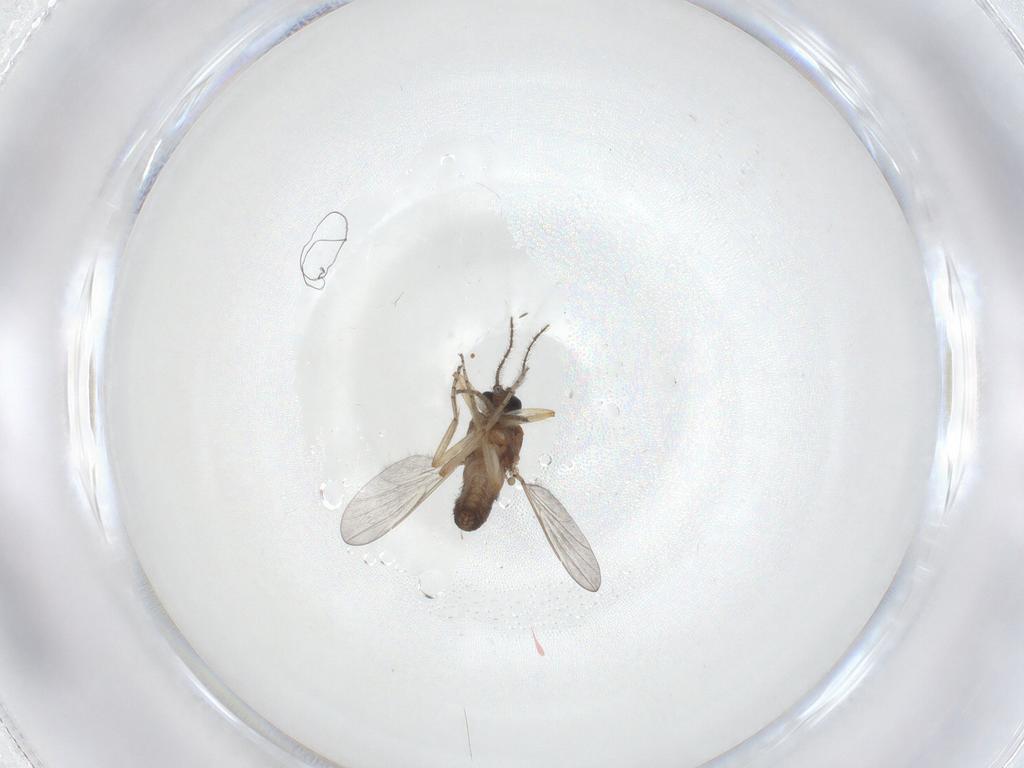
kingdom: Animalia
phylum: Arthropoda
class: Insecta
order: Diptera
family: Ceratopogonidae
